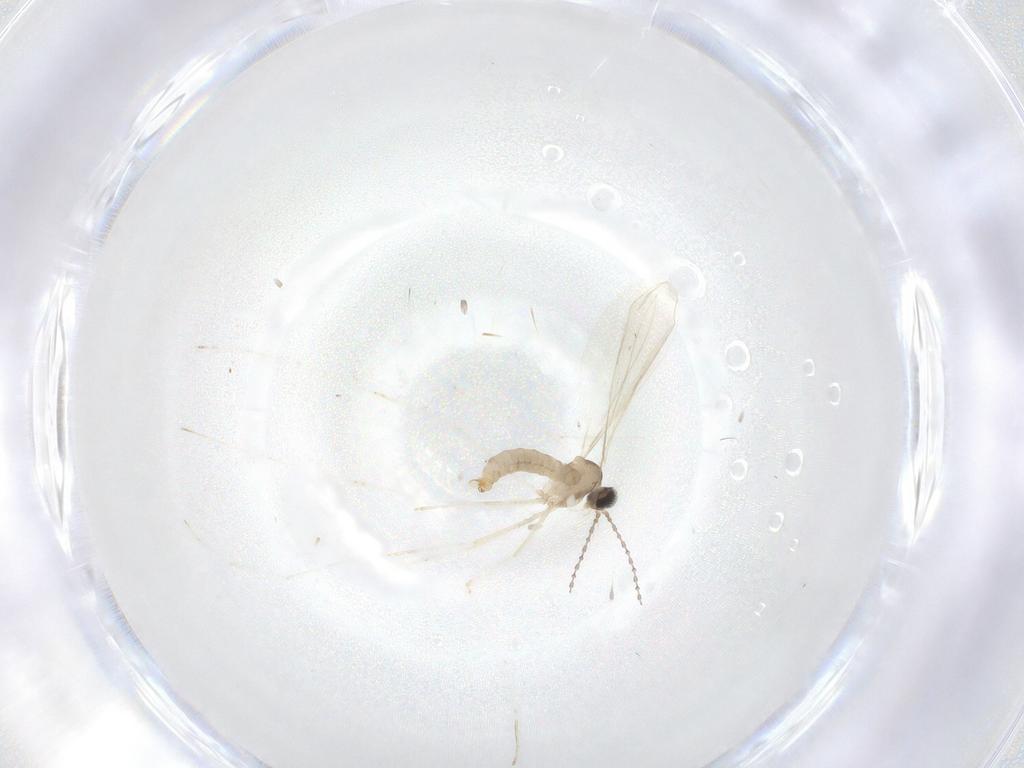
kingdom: Animalia
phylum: Arthropoda
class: Insecta
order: Diptera
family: Cecidomyiidae
